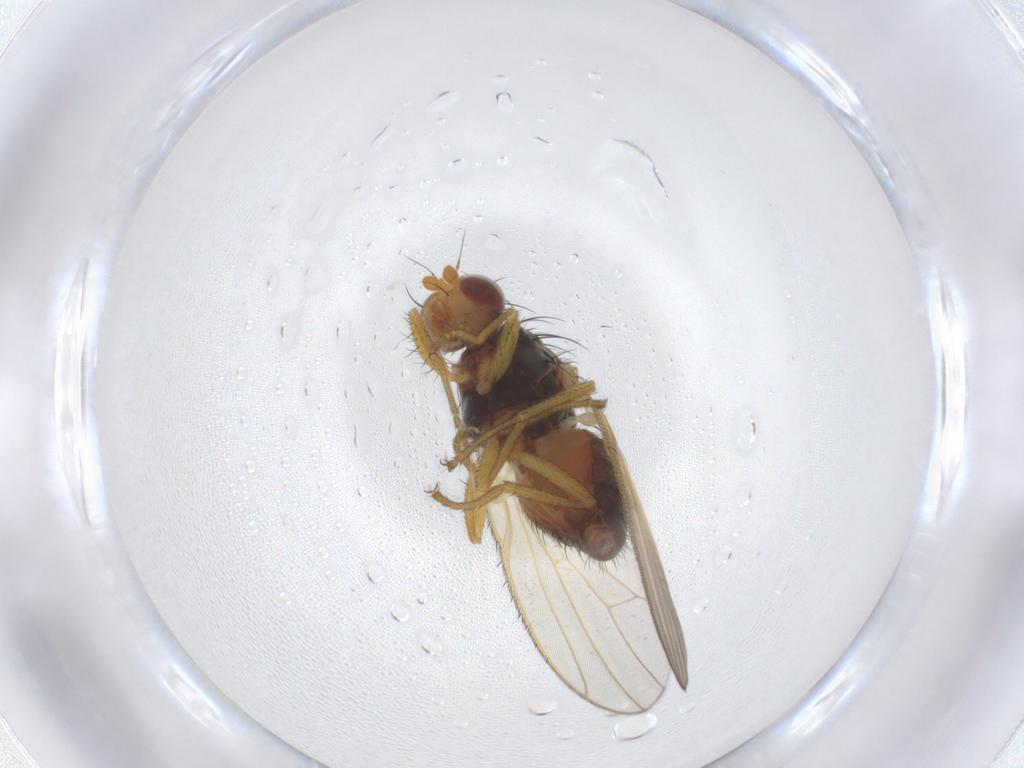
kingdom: Animalia
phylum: Arthropoda
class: Insecta
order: Diptera
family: Heleomyzidae
